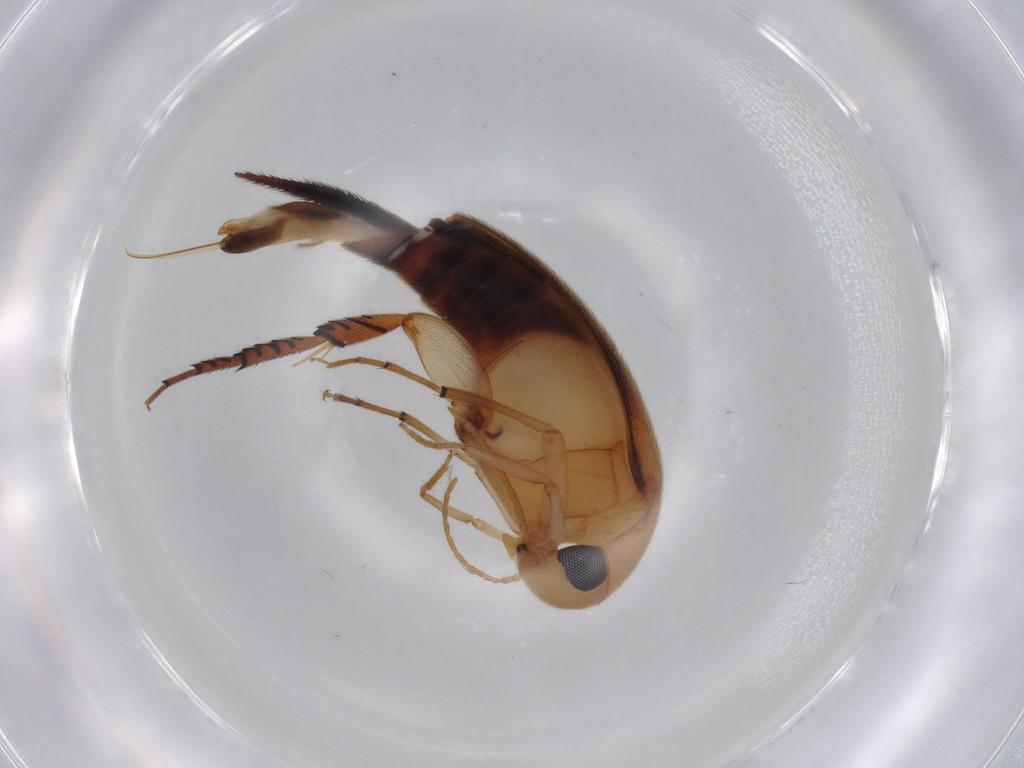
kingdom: Animalia
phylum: Arthropoda
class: Insecta
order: Coleoptera
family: Mordellidae
